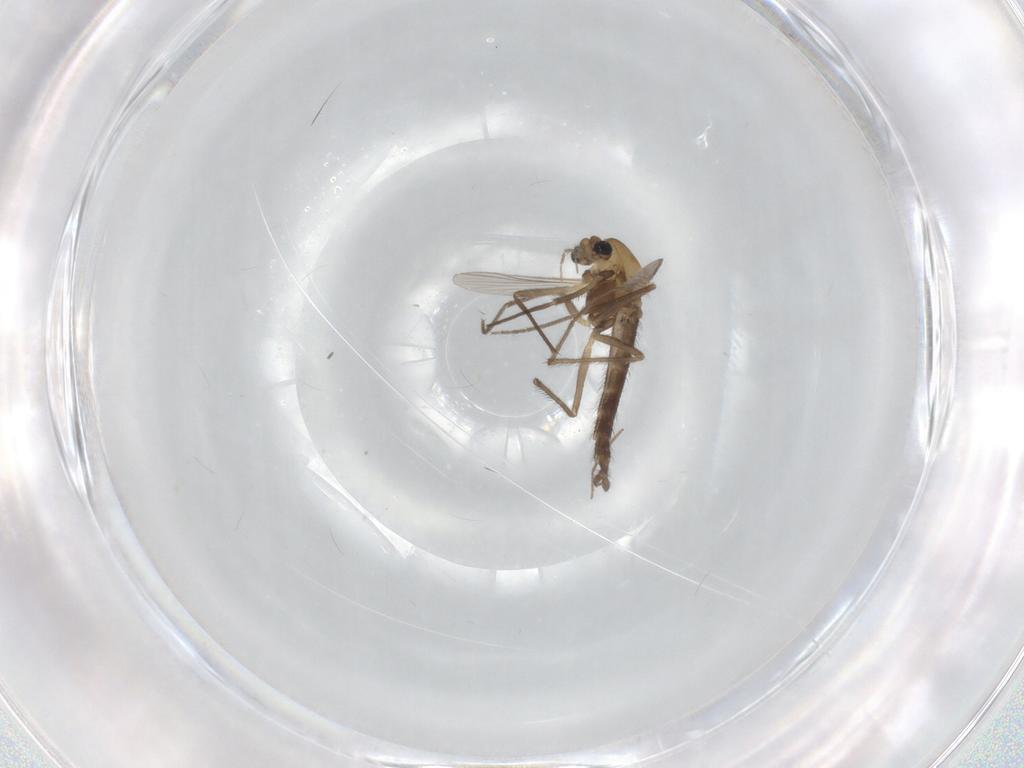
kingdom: Animalia
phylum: Arthropoda
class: Insecta
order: Diptera
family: Chironomidae
